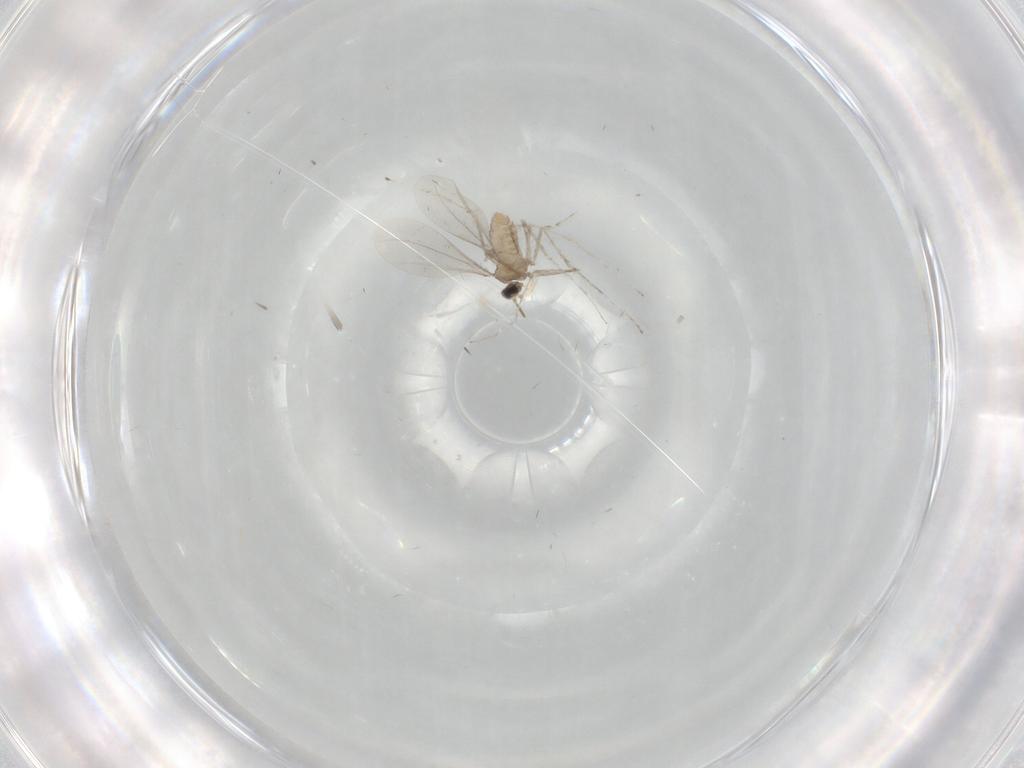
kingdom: Animalia
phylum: Arthropoda
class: Insecta
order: Diptera
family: Cecidomyiidae
